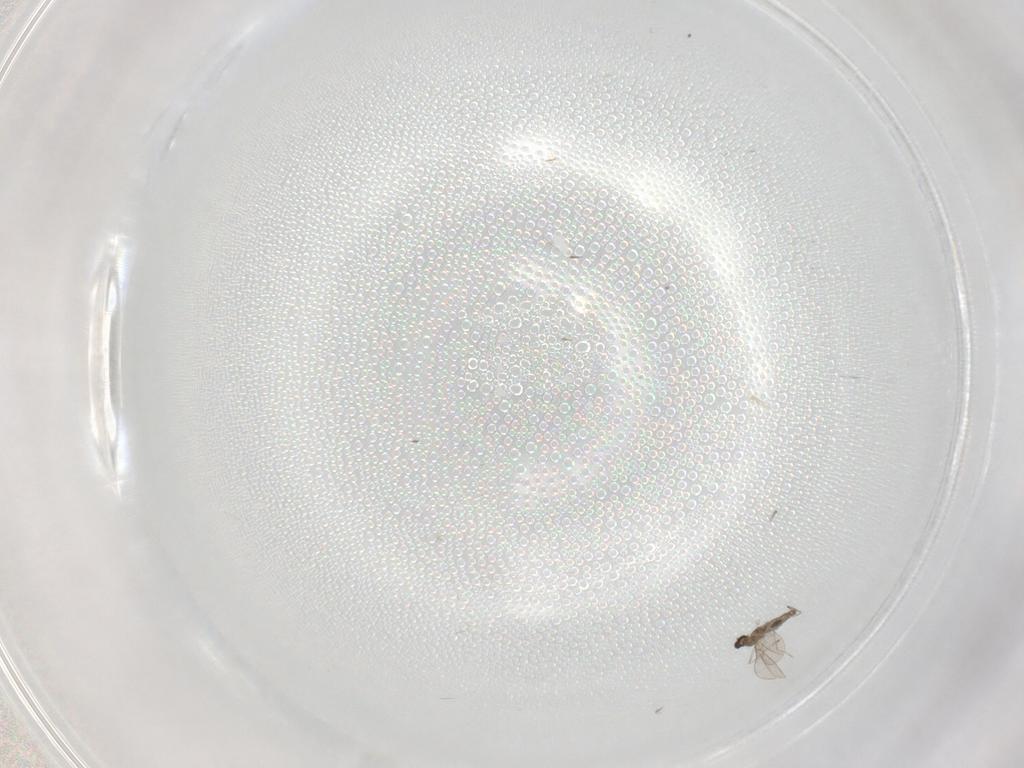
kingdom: Animalia
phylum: Arthropoda
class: Insecta
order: Diptera
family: Cecidomyiidae
